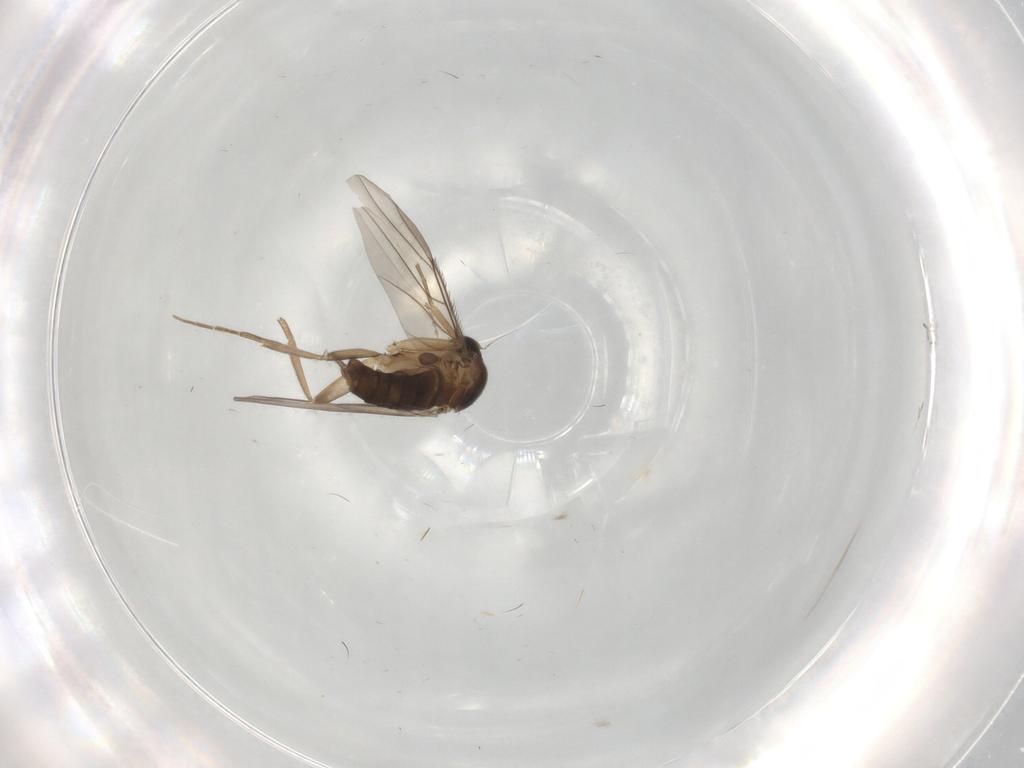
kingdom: Animalia
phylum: Arthropoda
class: Insecta
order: Diptera
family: Phoridae
